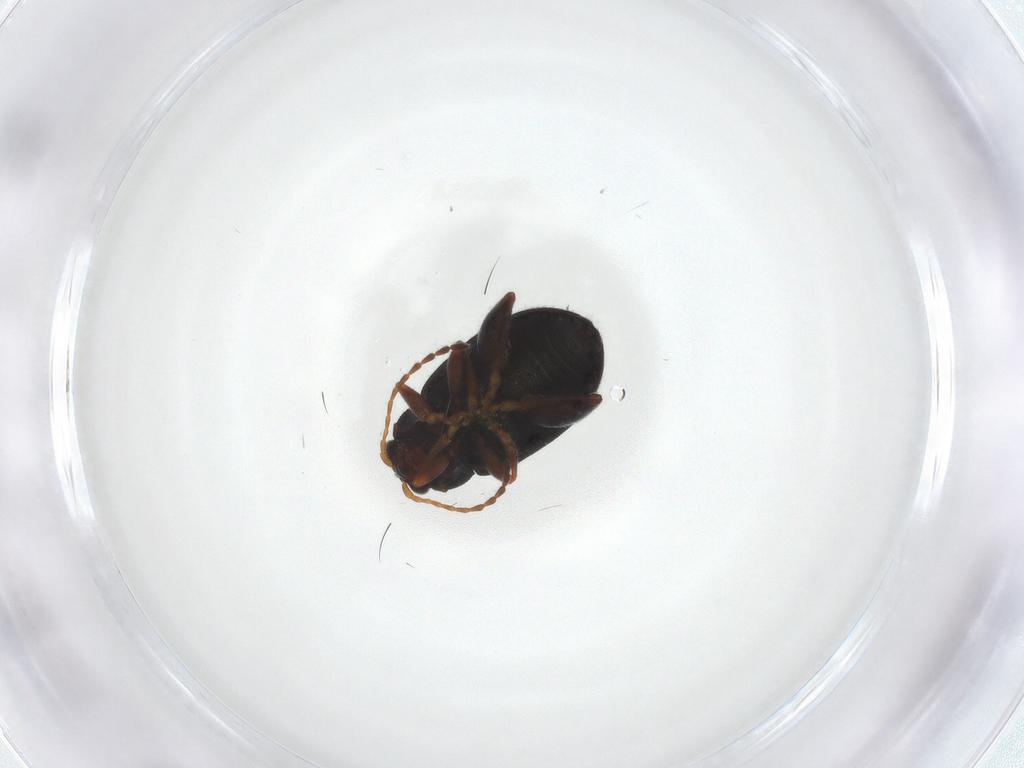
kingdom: Animalia
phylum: Arthropoda
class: Insecta
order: Coleoptera
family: Chrysomelidae
